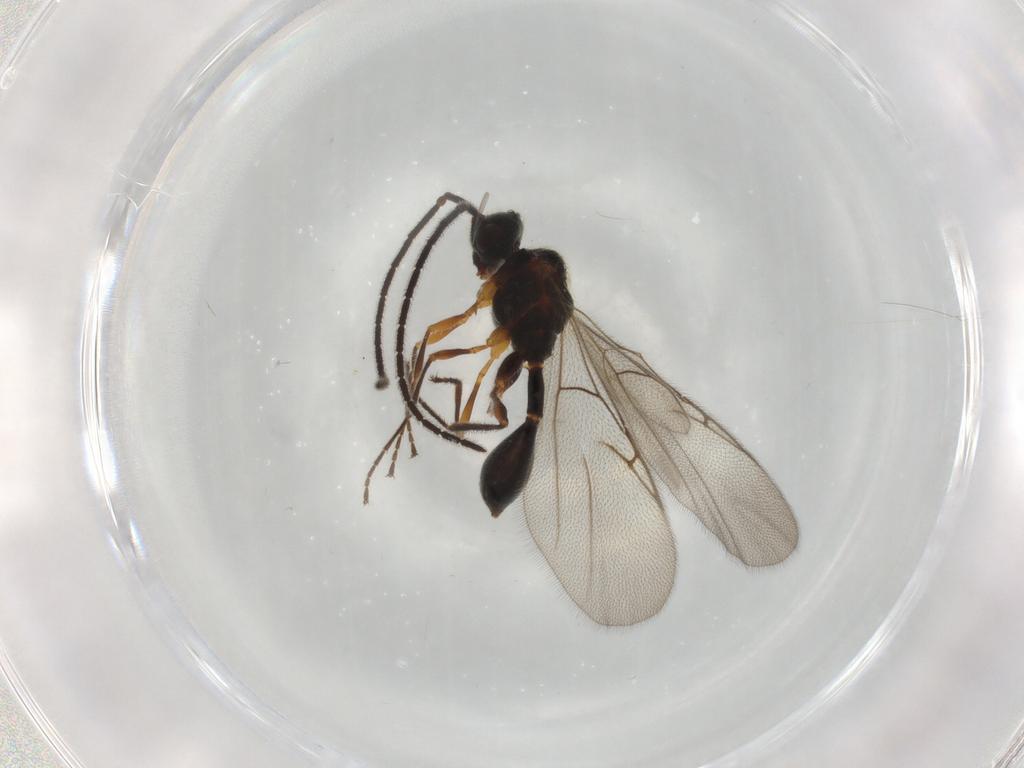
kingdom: Animalia
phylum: Arthropoda
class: Insecta
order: Hymenoptera
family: Diapriidae
